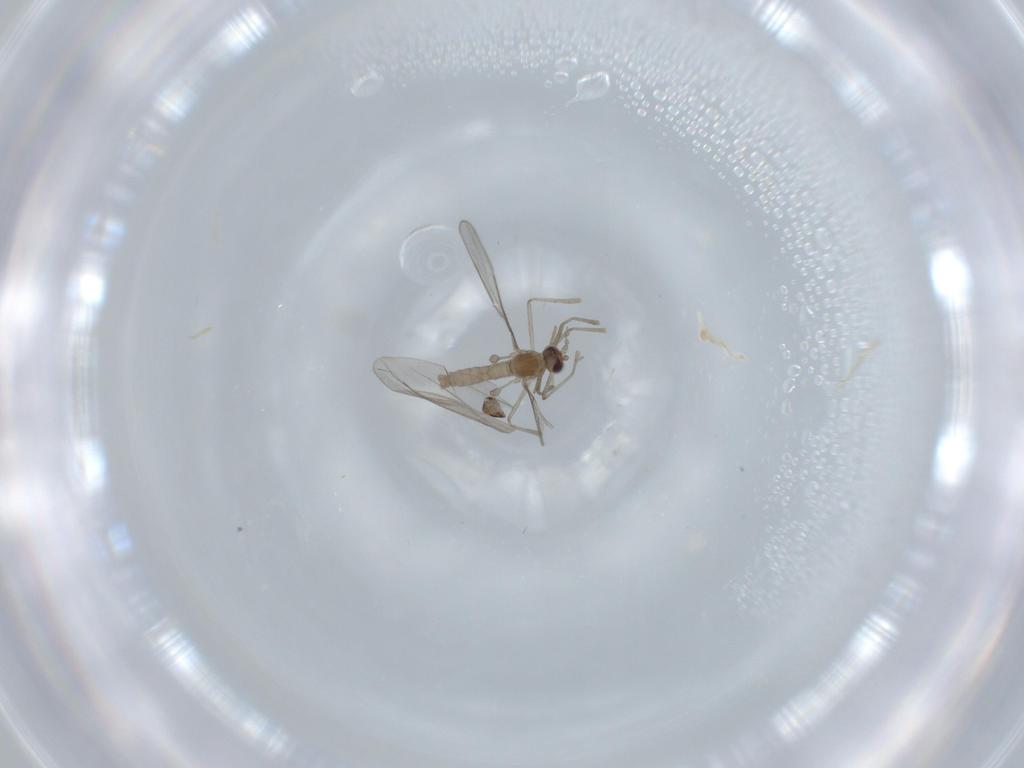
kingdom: Animalia
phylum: Arthropoda
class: Insecta
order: Diptera
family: Cecidomyiidae
